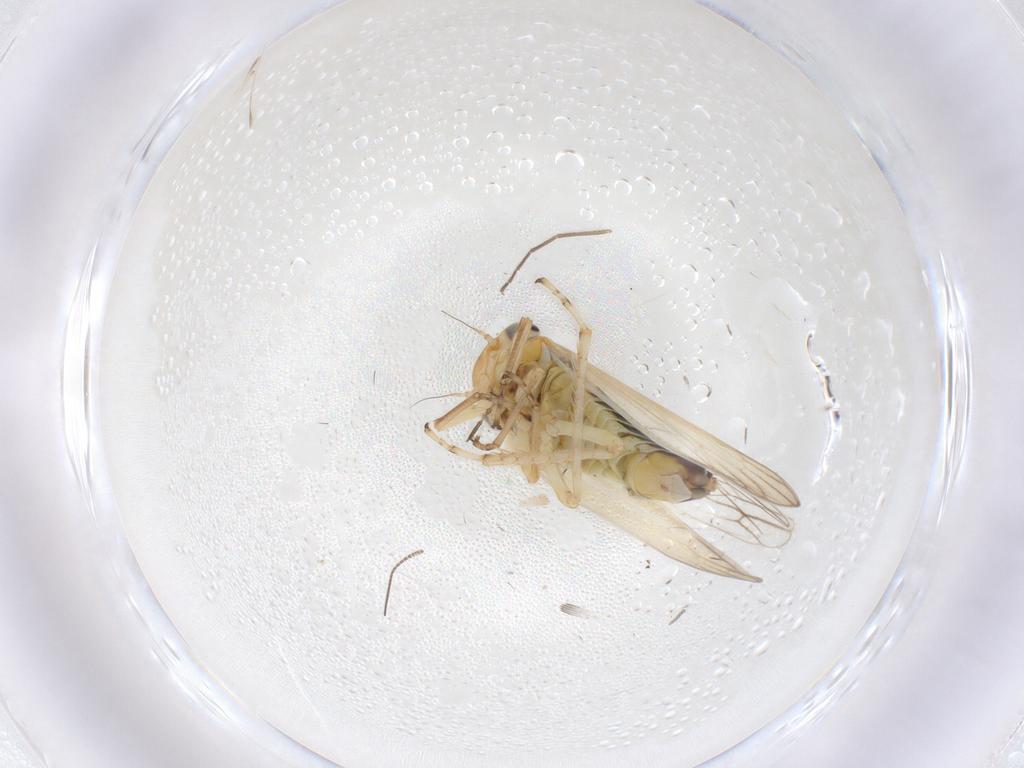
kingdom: Animalia
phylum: Arthropoda
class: Insecta
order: Hemiptera
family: Cicadellidae
